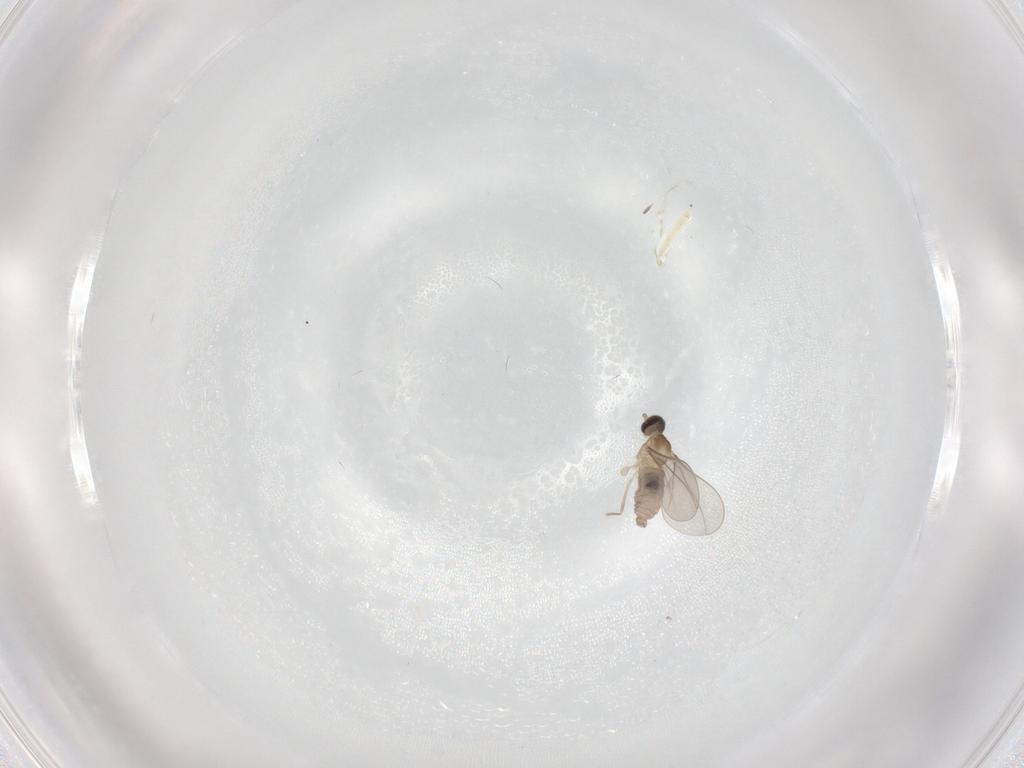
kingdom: Animalia
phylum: Arthropoda
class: Insecta
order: Diptera
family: Cecidomyiidae
